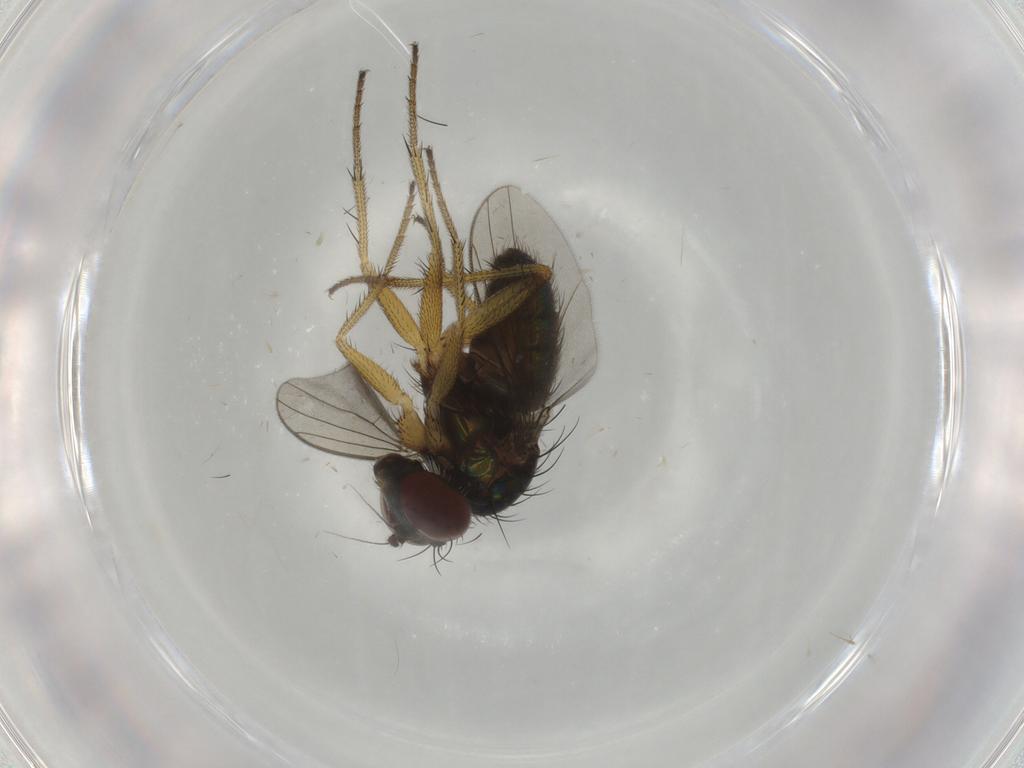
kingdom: Animalia
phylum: Arthropoda
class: Insecta
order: Diptera
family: Dolichopodidae
